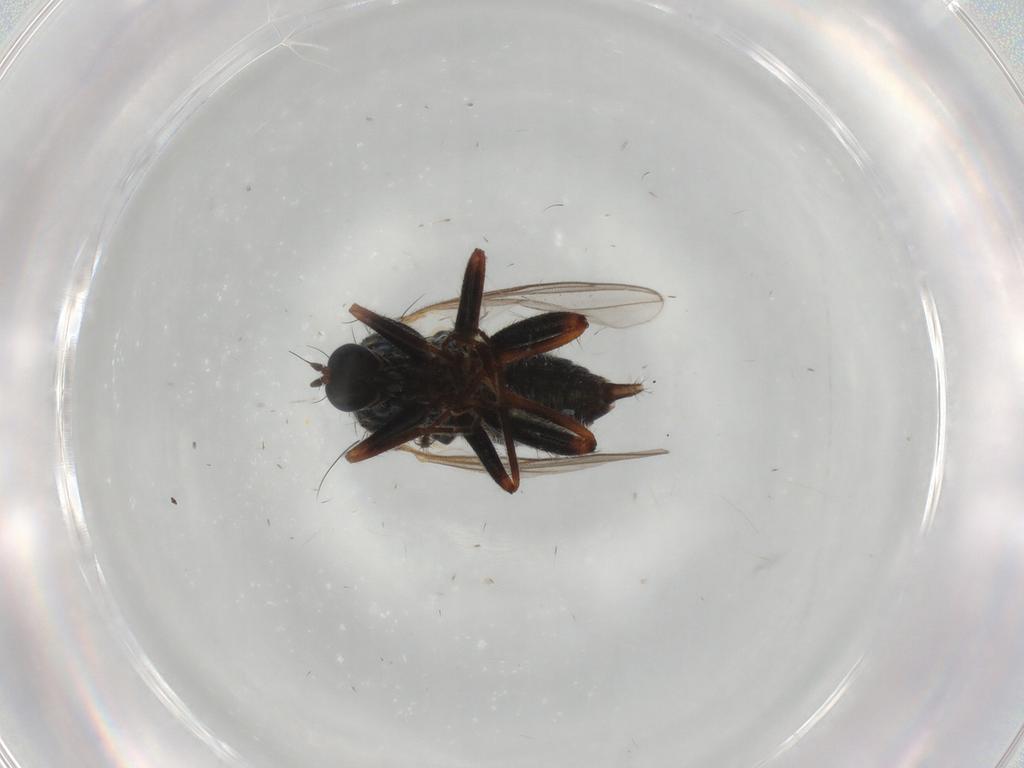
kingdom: Animalia
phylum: Arthropoda
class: Insecta
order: Diptera
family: Hybotidae
